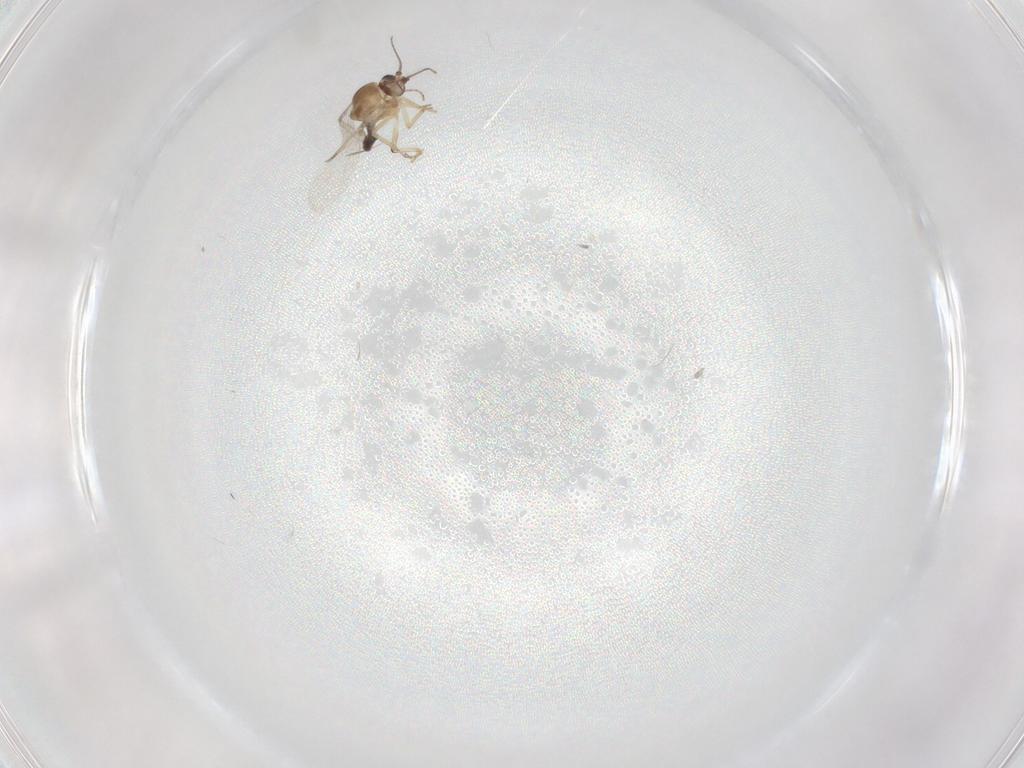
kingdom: Animalia
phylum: Arthropoda
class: Insecta
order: Diptera
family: Ceratopogonidae
